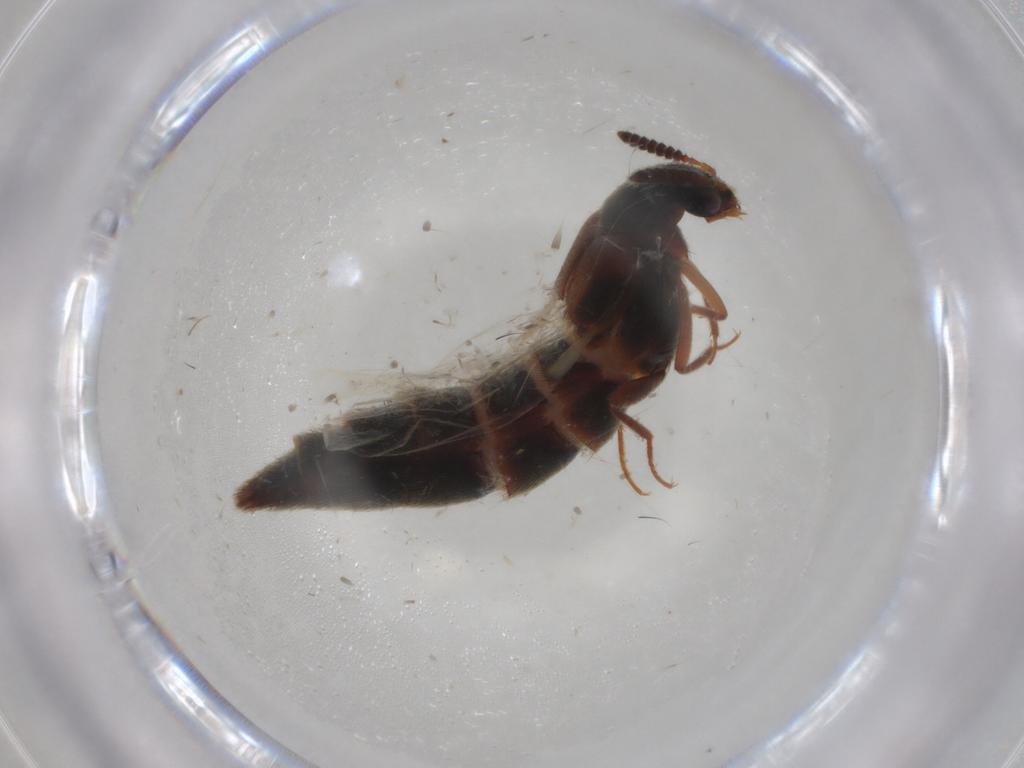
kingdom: Animalia
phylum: Arthropoda
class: Insecta
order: Coleoptera
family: Staphylinidae
